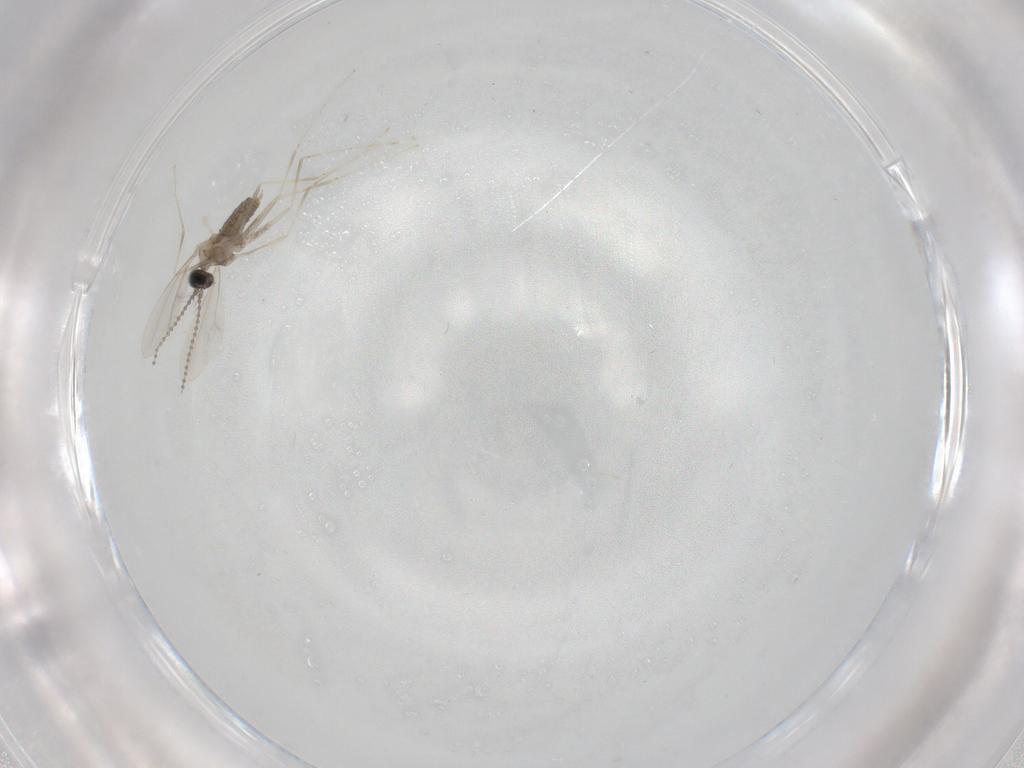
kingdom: Animalia
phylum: Arthropoda
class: Insecta
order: Diptera
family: Cecidomyiidae
